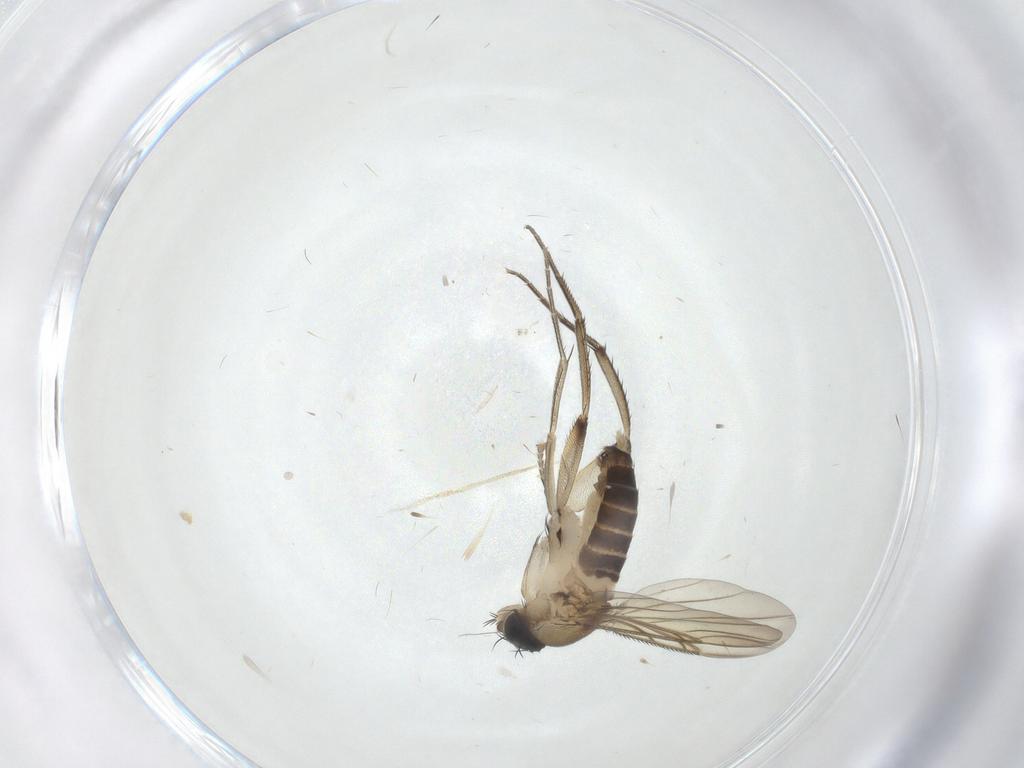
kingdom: Animalia
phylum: Arthropoda
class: Insecta
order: Diptera
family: Phoridae
